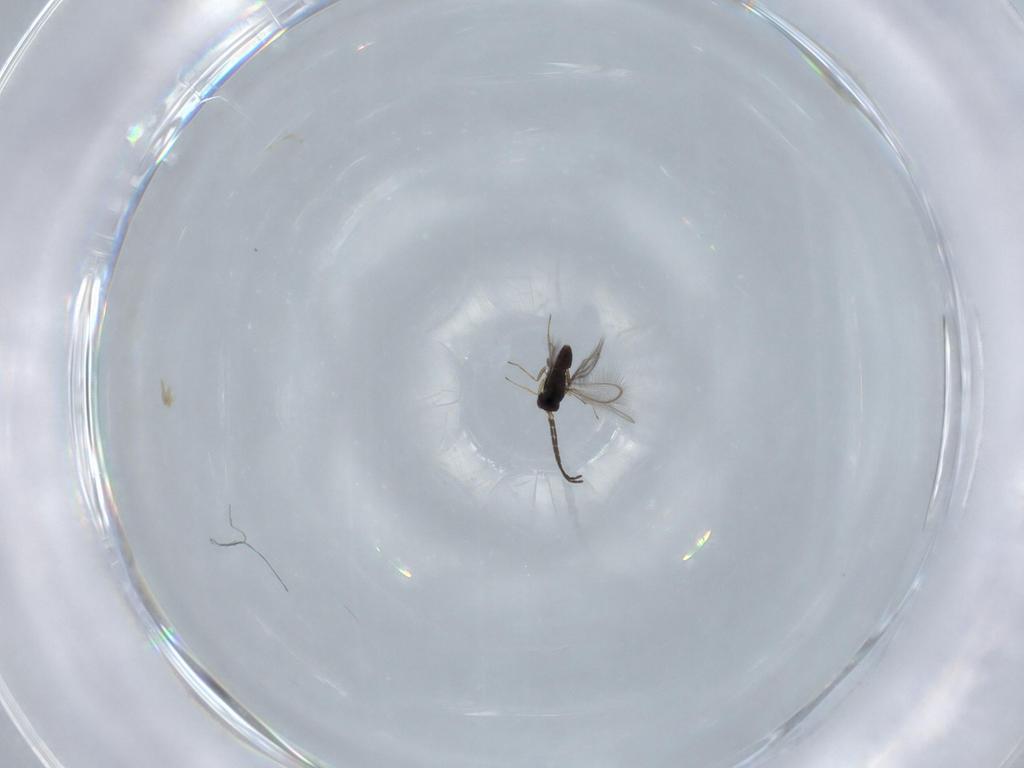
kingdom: Animalia
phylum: Arthropoda
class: Insecta
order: Diptera
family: Chironomidae
